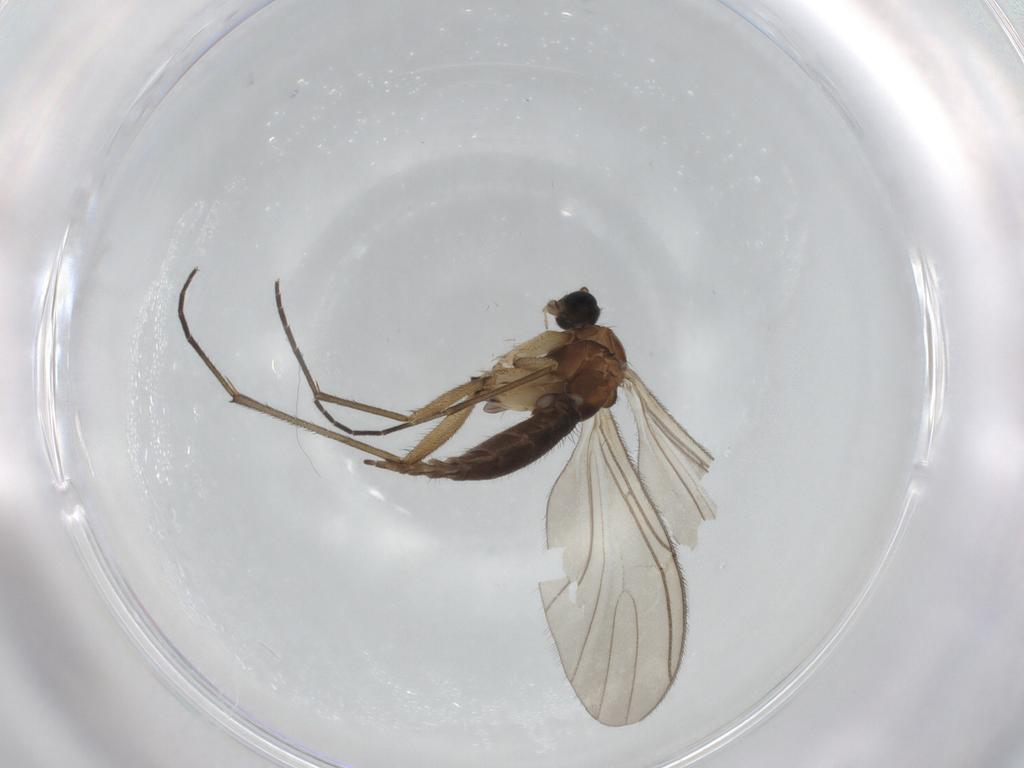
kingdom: Animalia
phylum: Arthropoda
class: Insecta
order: Diptera
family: Sciaridae
